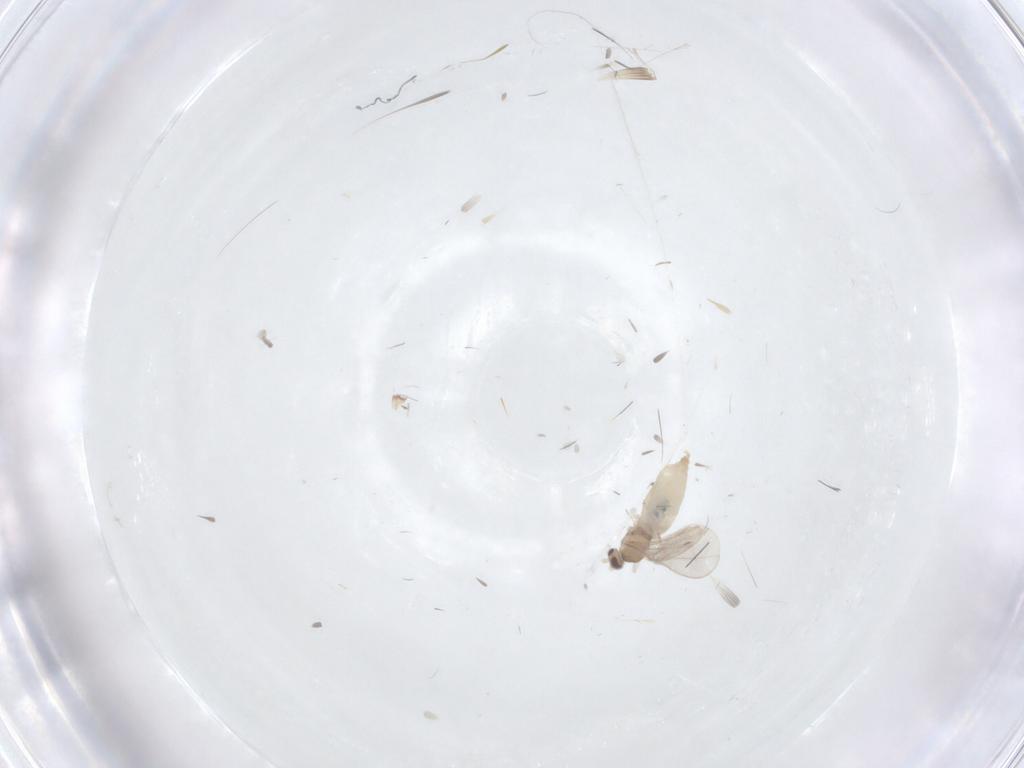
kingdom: Animalia
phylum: Arthropoda
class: Insecta
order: Diptera
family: Cecidomyiidae
